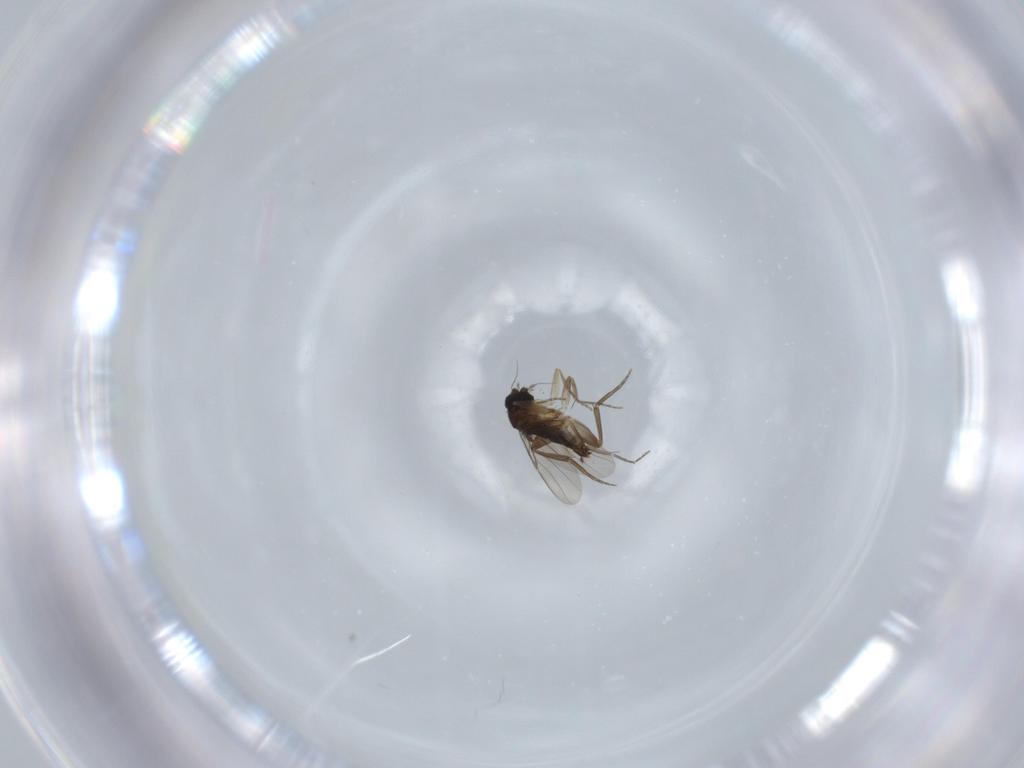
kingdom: Animalia
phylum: Arthropoda
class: Insecta
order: Diptera
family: Phoridae
